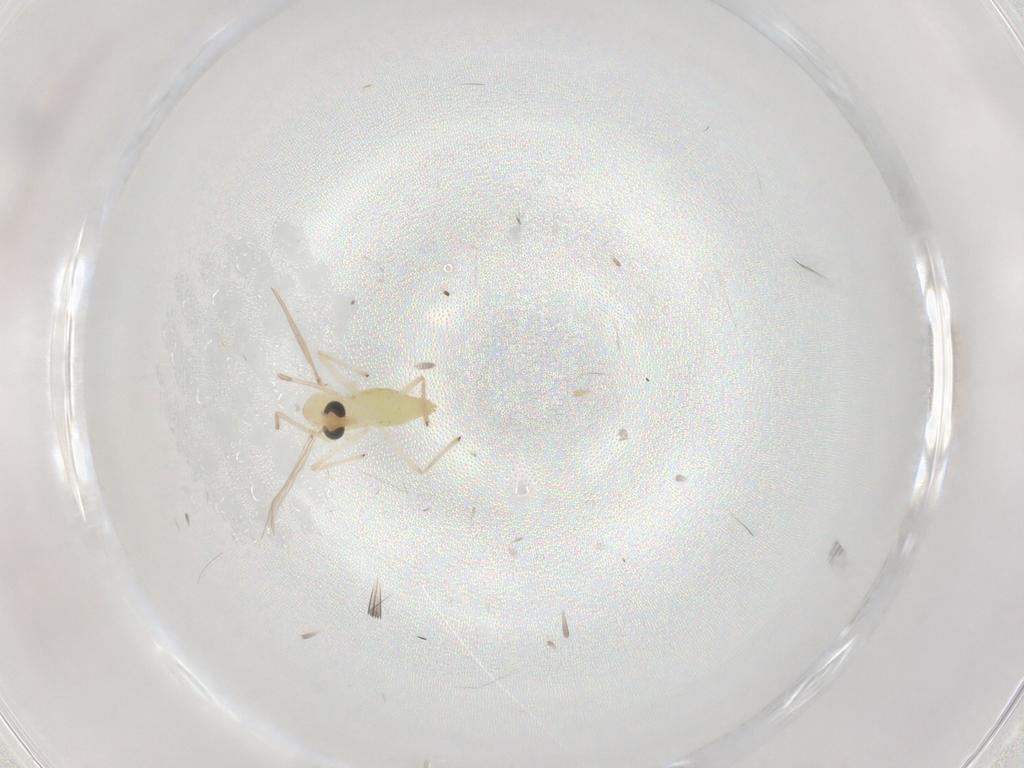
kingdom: Animalia
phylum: Arthropoda
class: Insecta
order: Diptera
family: Chironomidae
